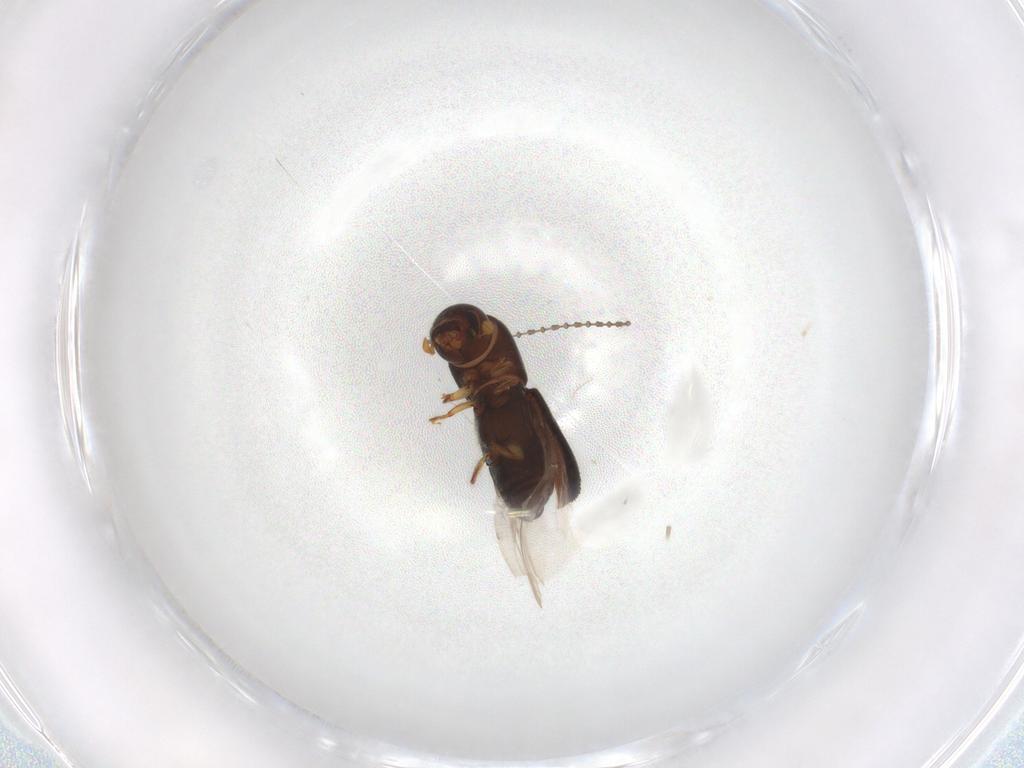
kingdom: Animalia
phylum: Arthropoda
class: Insecta
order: Coleoptera
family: Curculionidae
